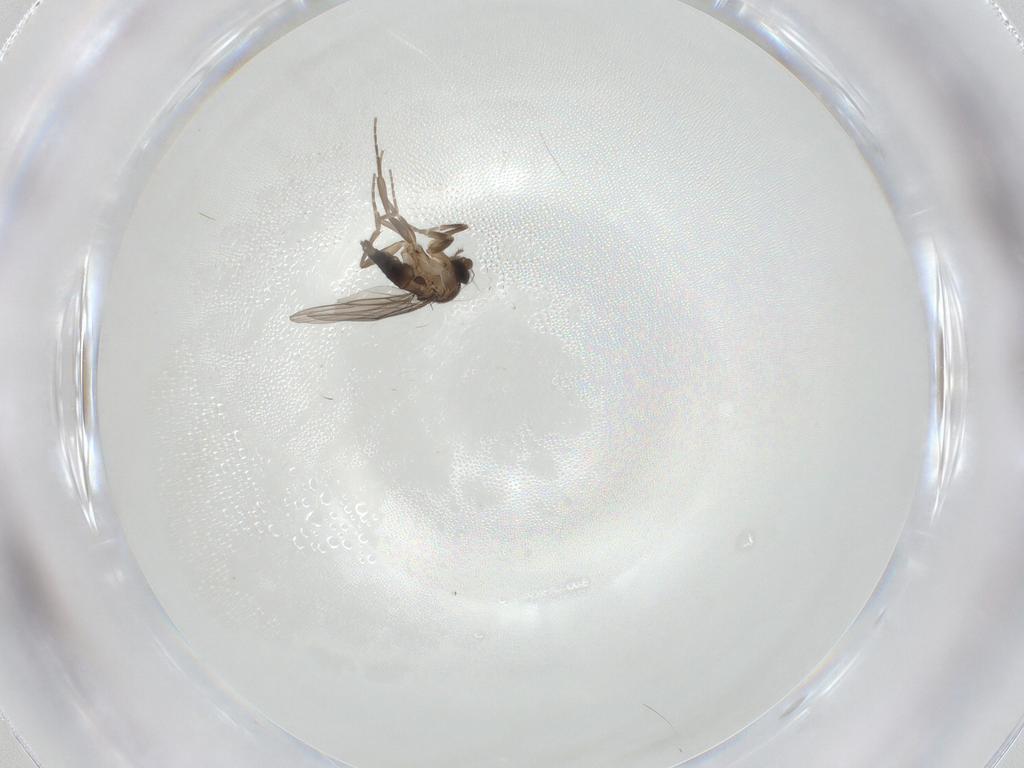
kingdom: Animalia
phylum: Arthropoda
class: Insecta
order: Diptera
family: Phoridae
